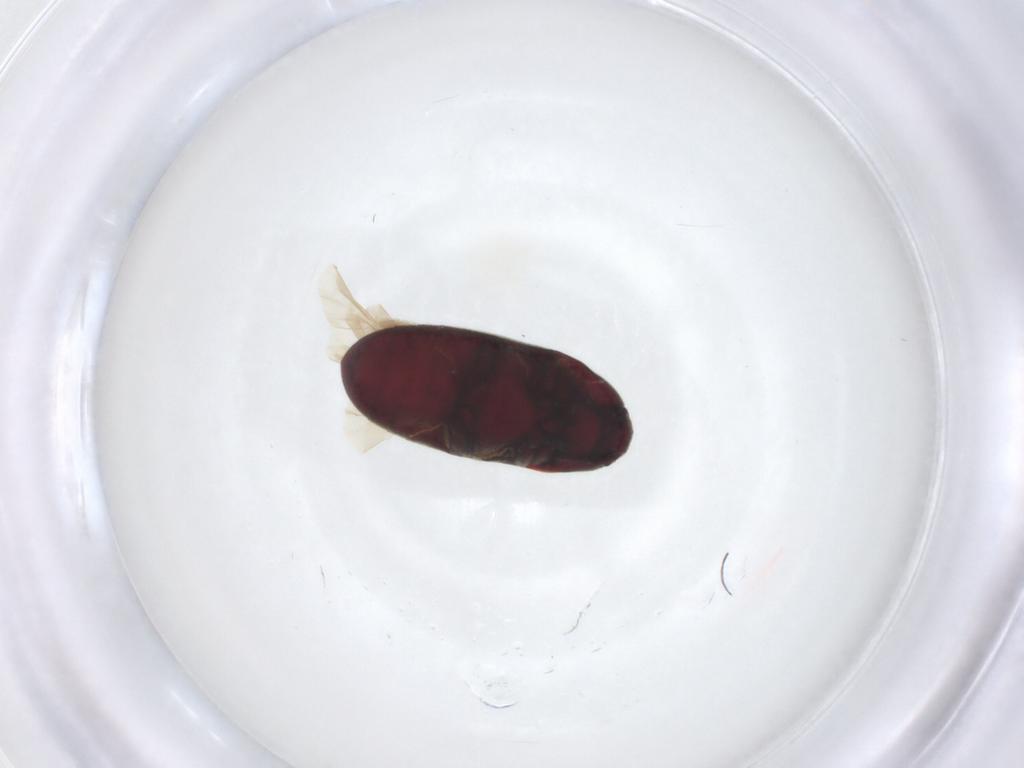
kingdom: Animalia
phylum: Arthropoda
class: Insecta
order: Coleoptera
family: Throscidae
